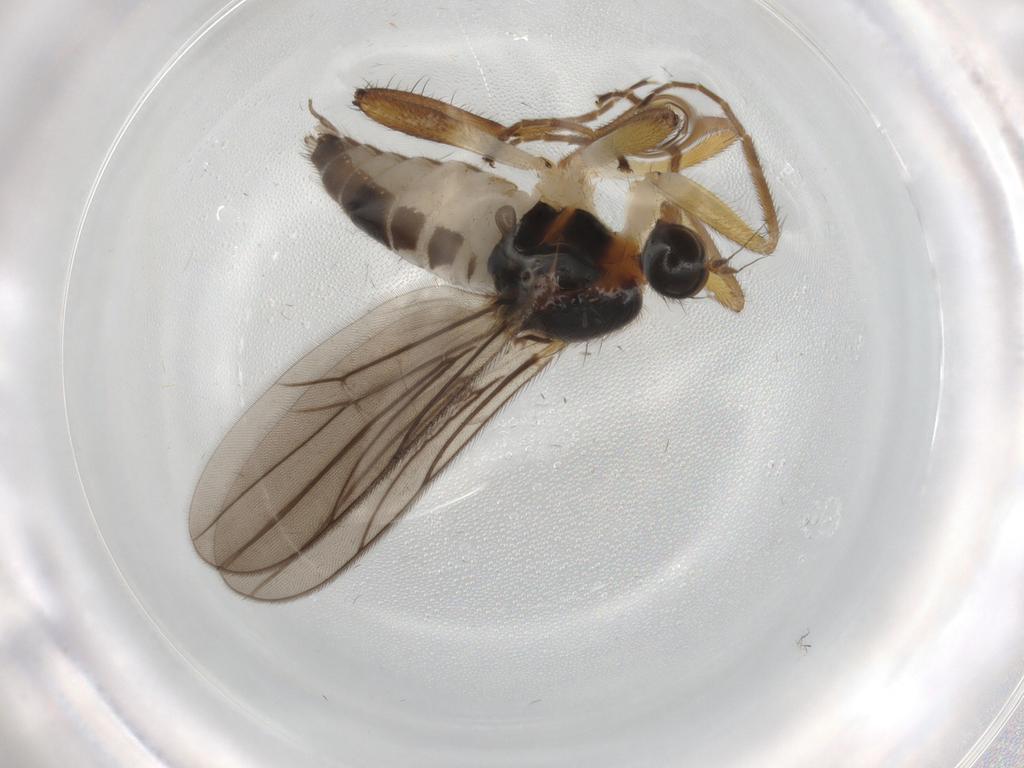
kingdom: Animalia
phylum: Arthropoda
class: Insecta
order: Diptera
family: Hybotidae
